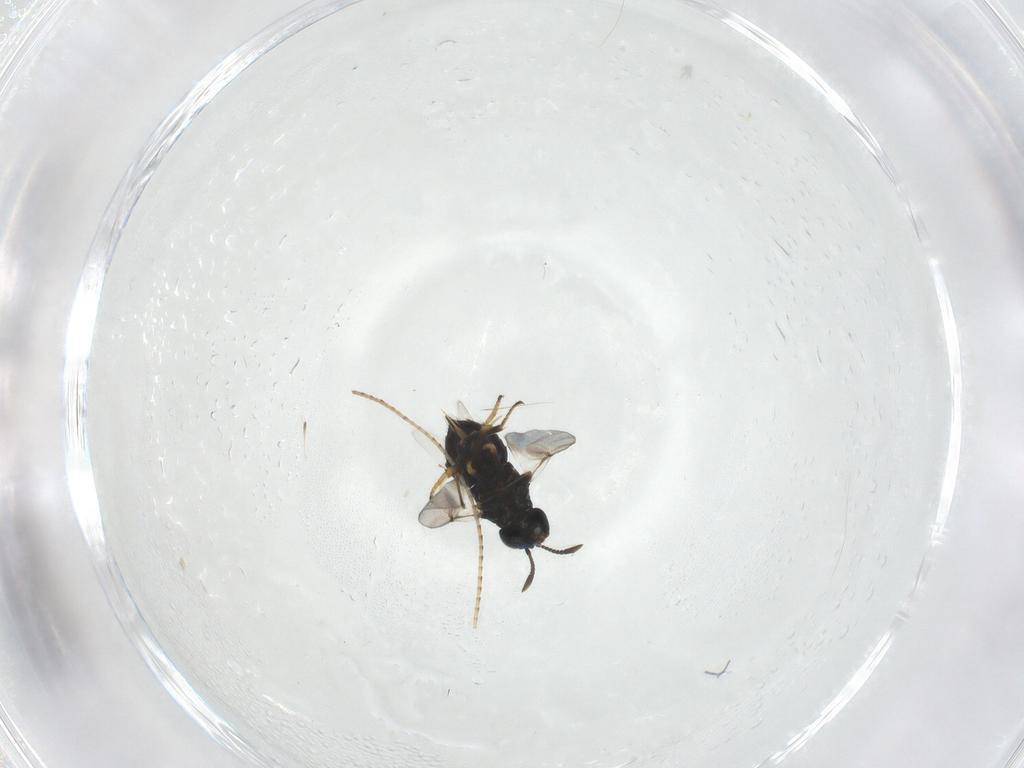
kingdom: Animalia
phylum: Arthropoda
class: Insecta
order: Hymenoptera
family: Encyrtidae
